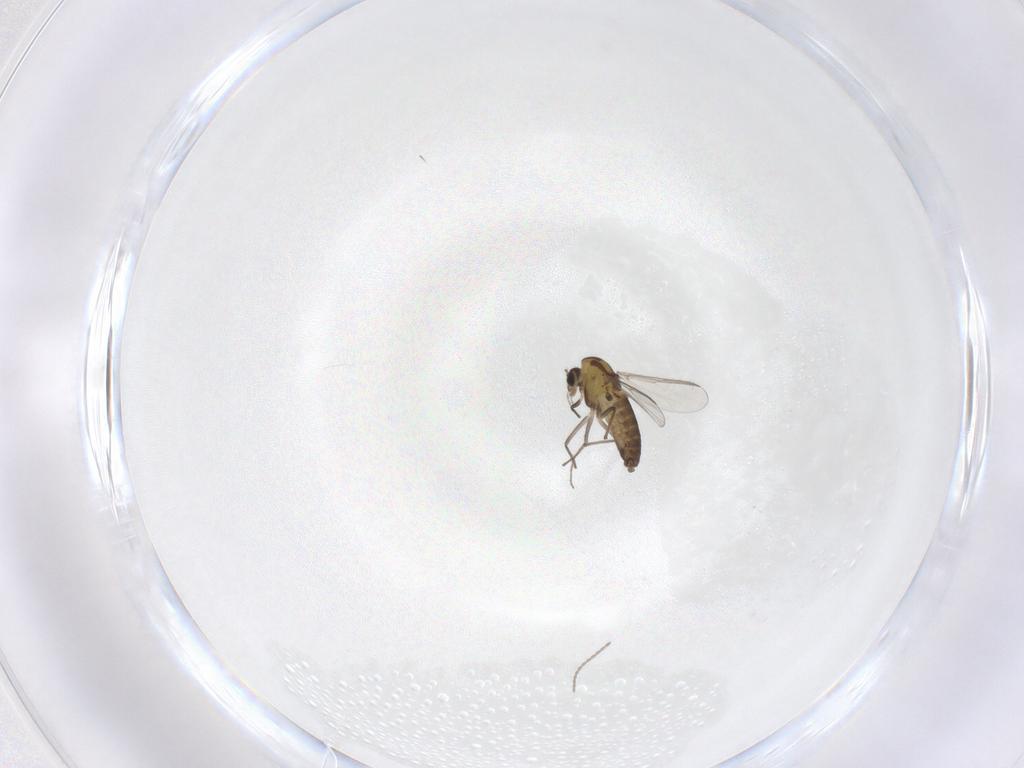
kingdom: Animalia
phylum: Arthropoda
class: Insecta
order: Diptera
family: Chironomidae
